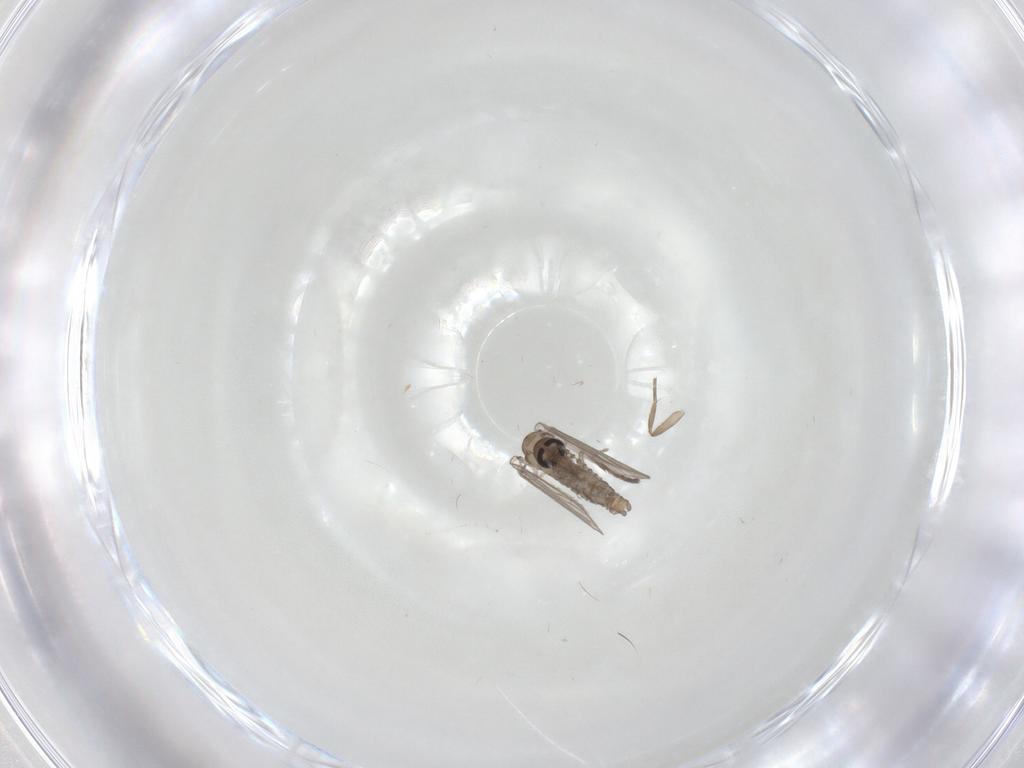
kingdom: Animalia
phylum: Arthropoda
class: Insecta
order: Diptera
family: Psychodidae
